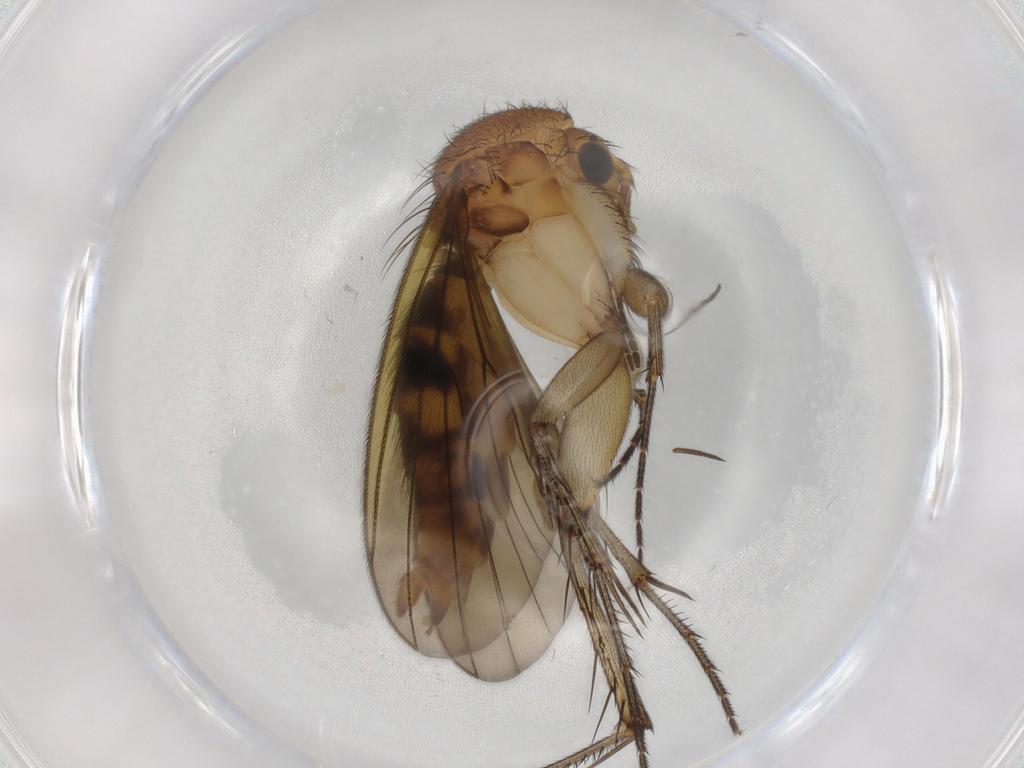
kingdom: Animalia
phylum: Arthropoda
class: Insecta
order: Diptera
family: Mycetophilidae
